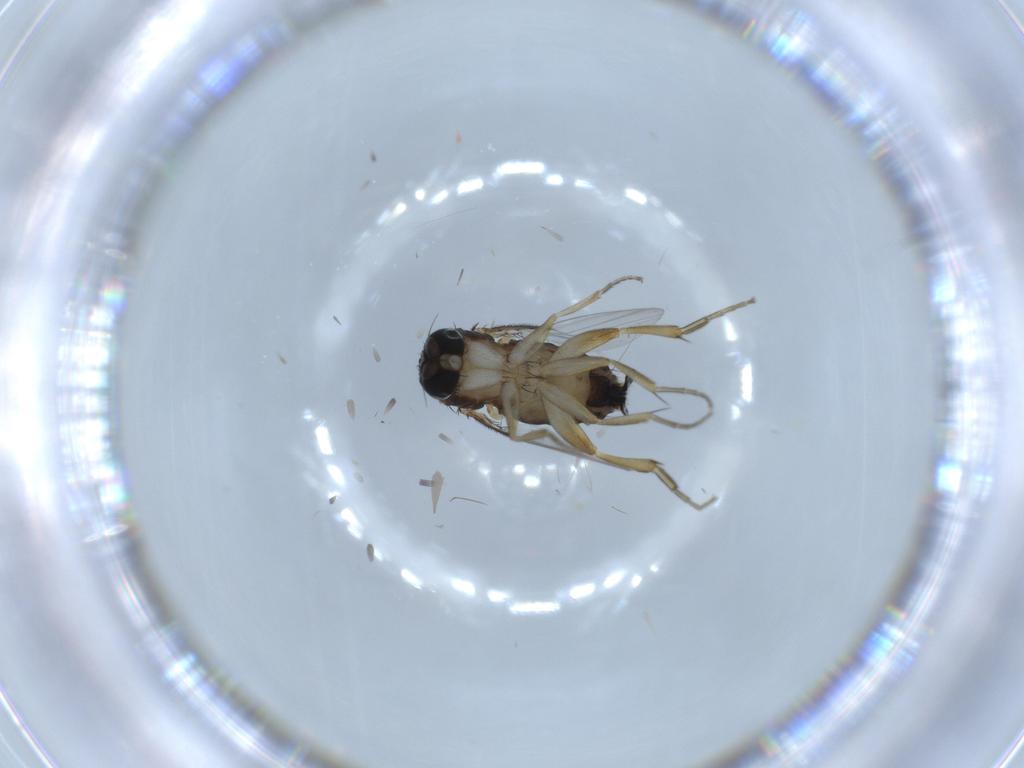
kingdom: Animalia
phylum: Arthropoda
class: Insecta
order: Diptera
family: Phoridae
